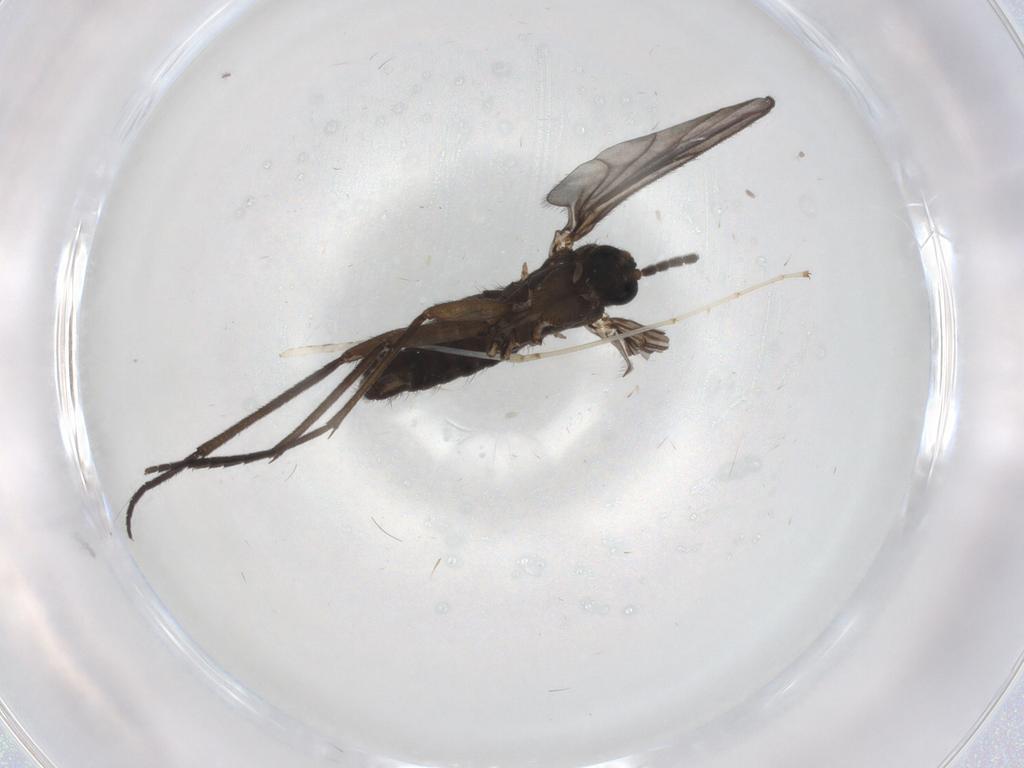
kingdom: Animalia
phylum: Arthropoda
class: Insecta
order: Diptera
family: Sciaridae
